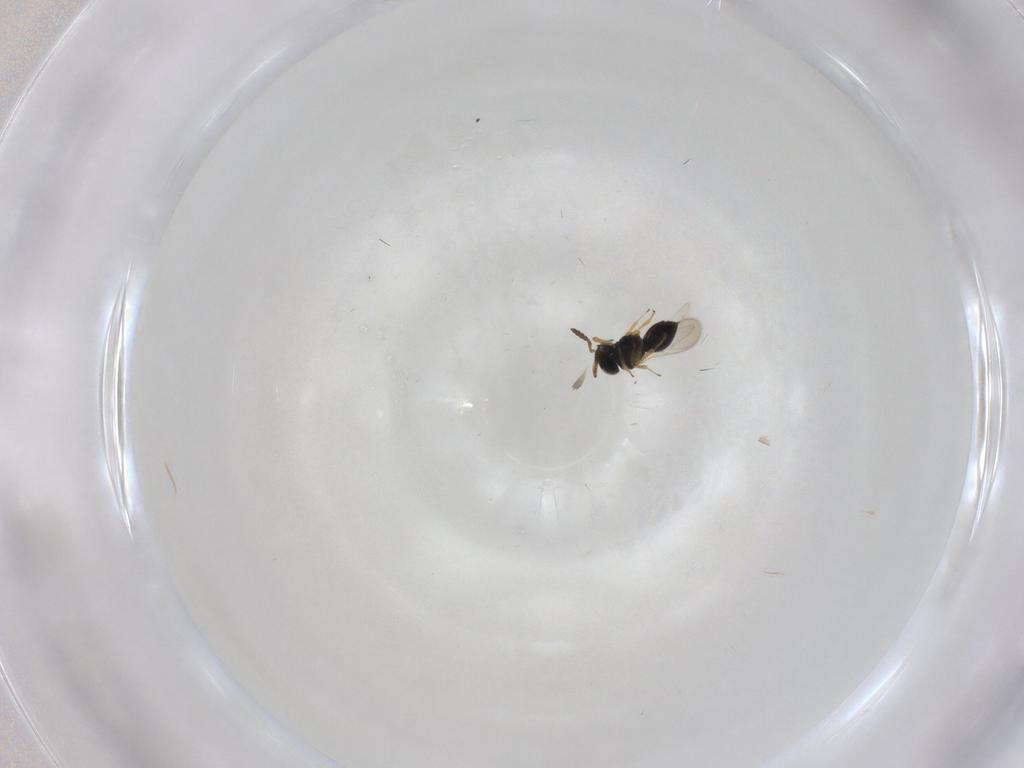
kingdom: Animalia
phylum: Arthropoda
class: Insecta
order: Hymenoptera
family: Scelionidae
